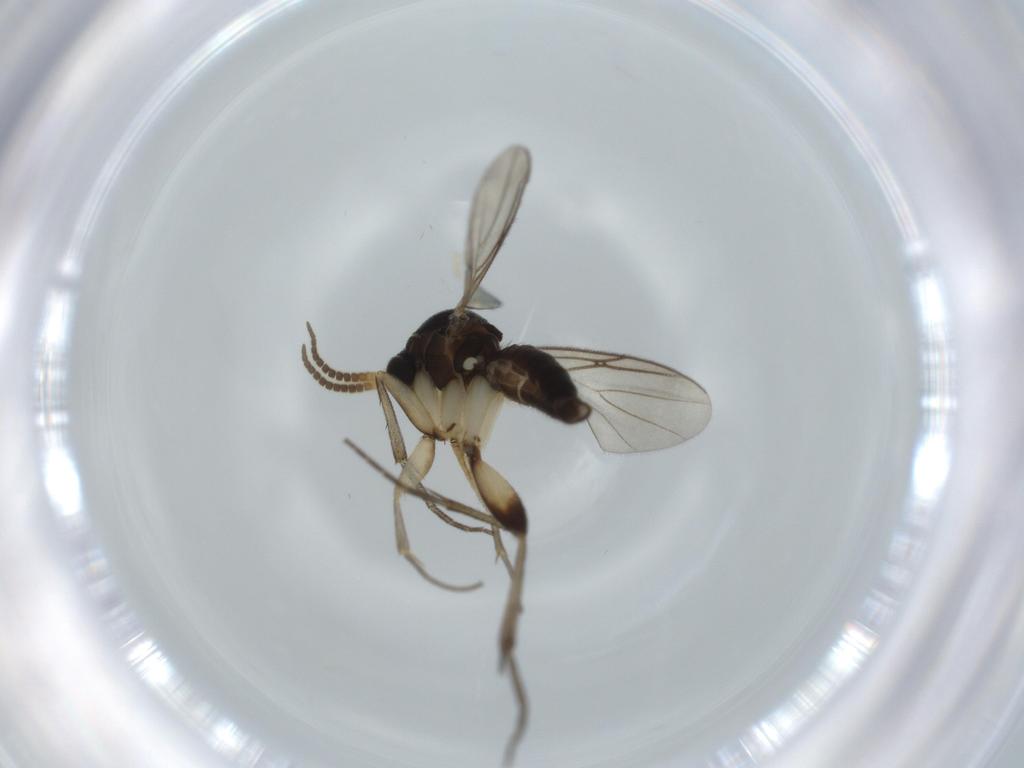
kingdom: Animalia
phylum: Arthropoda
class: Insecta
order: Diptera
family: Mycetophilidae
